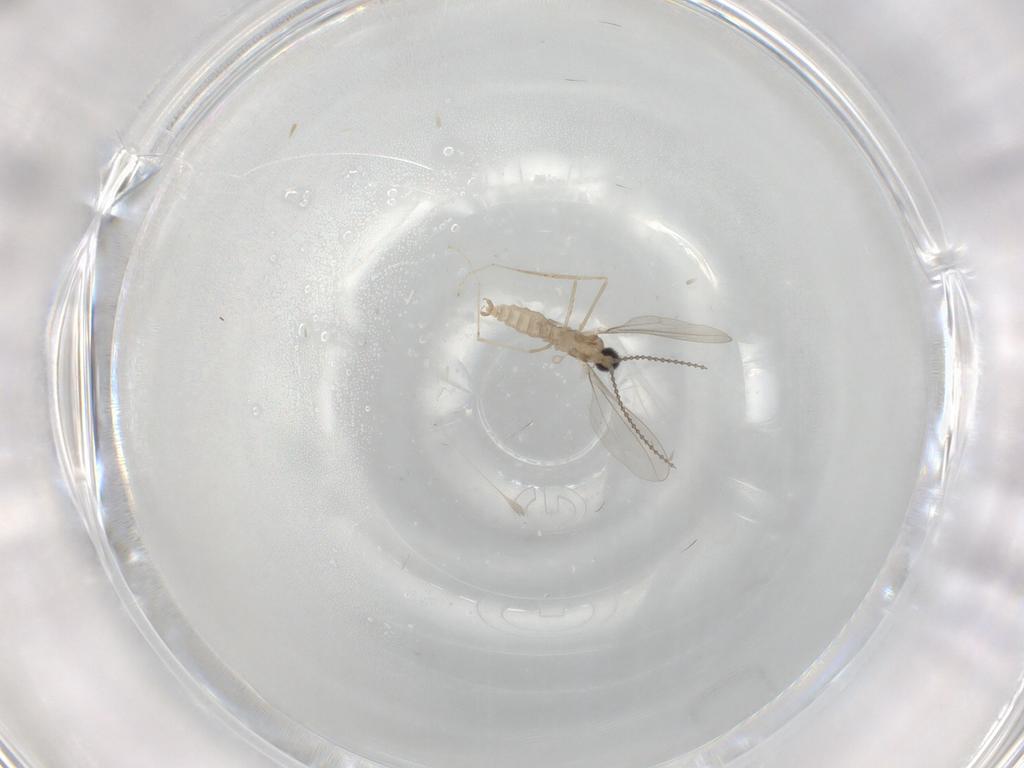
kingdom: Animalia
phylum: Arthropoda
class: Insecta
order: Diptera
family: Cecidomyiidae
